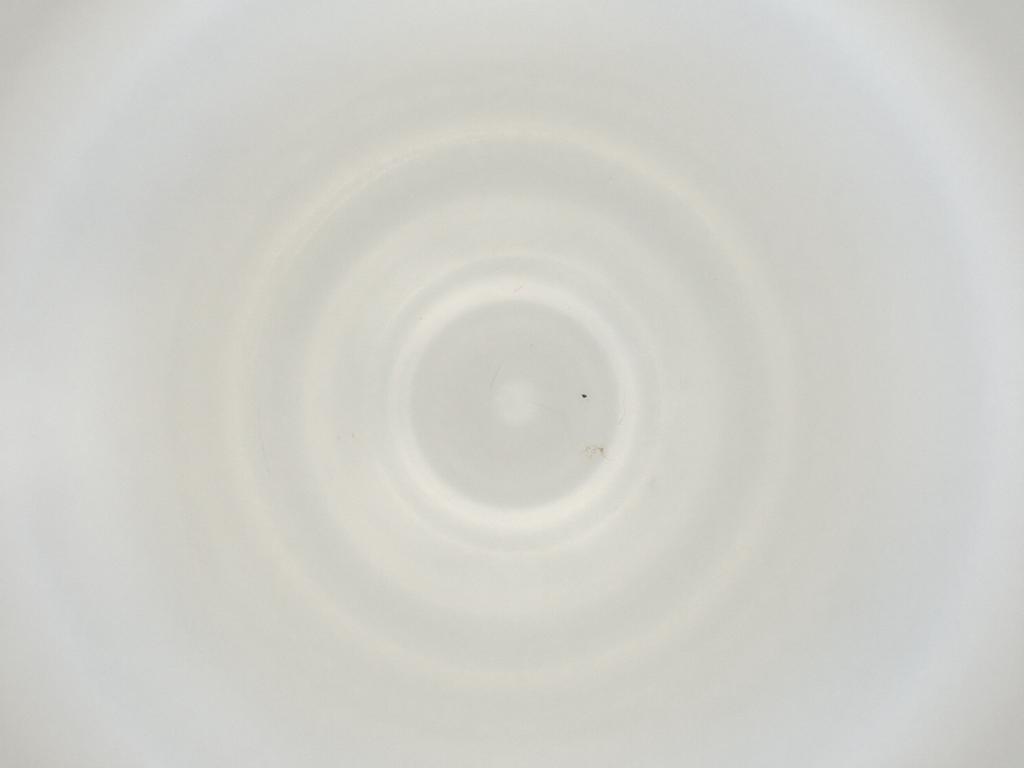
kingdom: Animalia
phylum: Arthropoda
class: Insecta
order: Diptera
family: Cecidomyiidae
